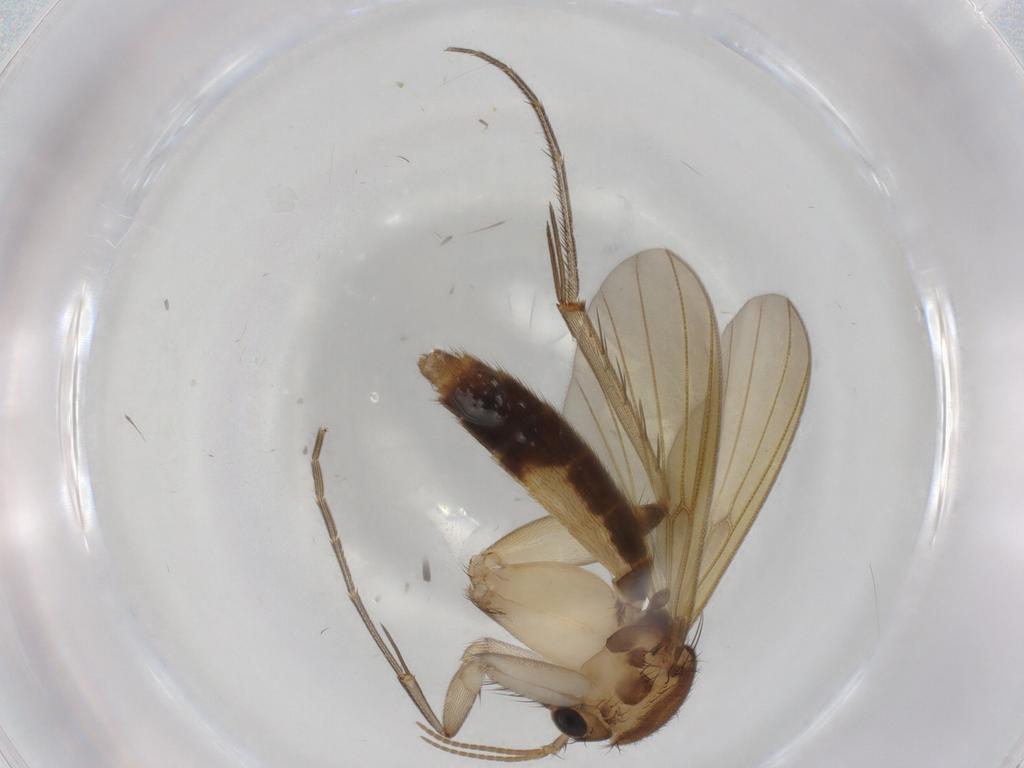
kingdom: Animalia
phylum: Arthropoda
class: Insecta
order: Diptera
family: Mycetophilidae
